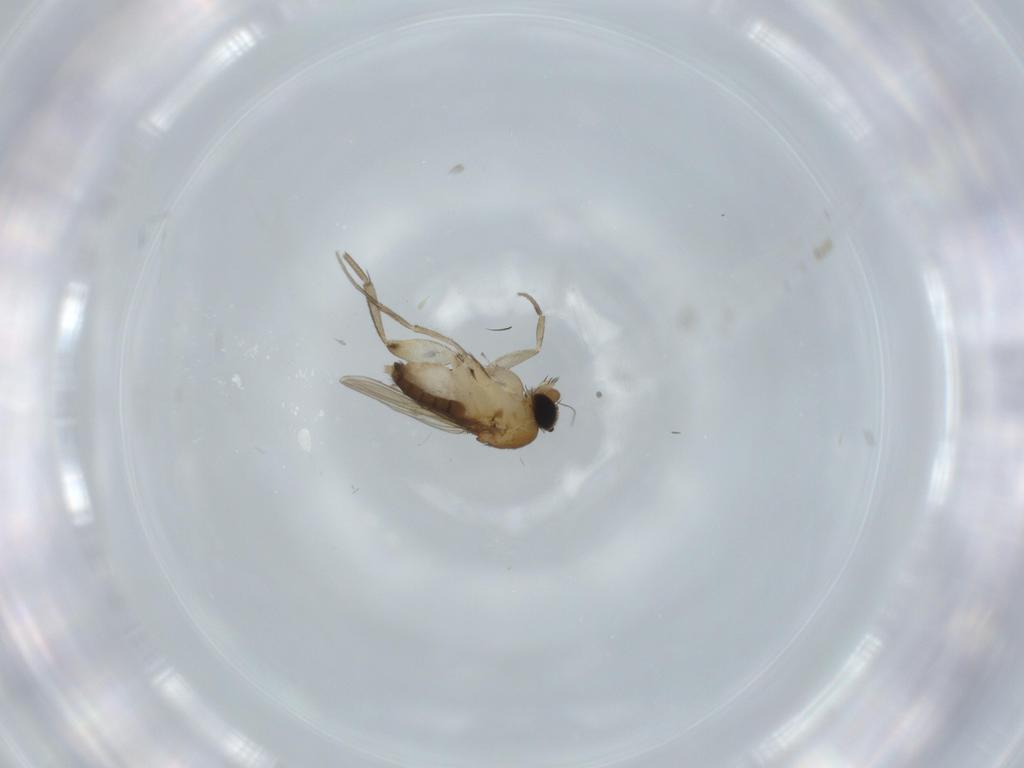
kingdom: Animalia
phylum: Arthropoda
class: Insecta
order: Diptera
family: Phoridae
